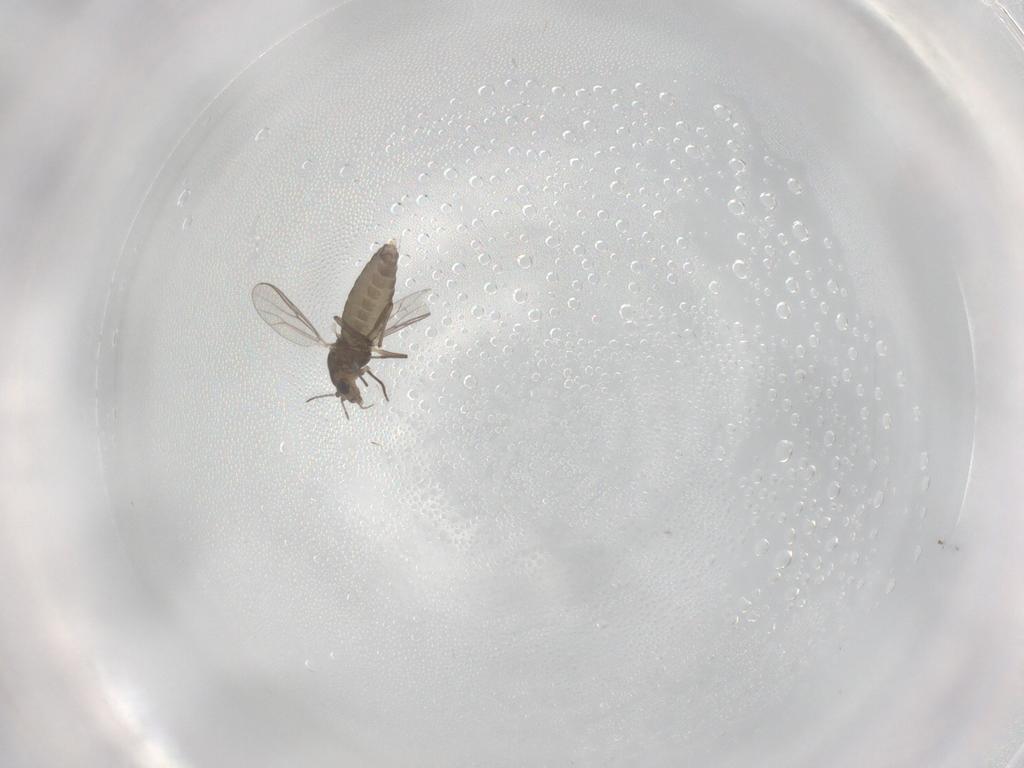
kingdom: Animalia
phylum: Arthropoda
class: Insecta
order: Diptera
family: Chironomidae
